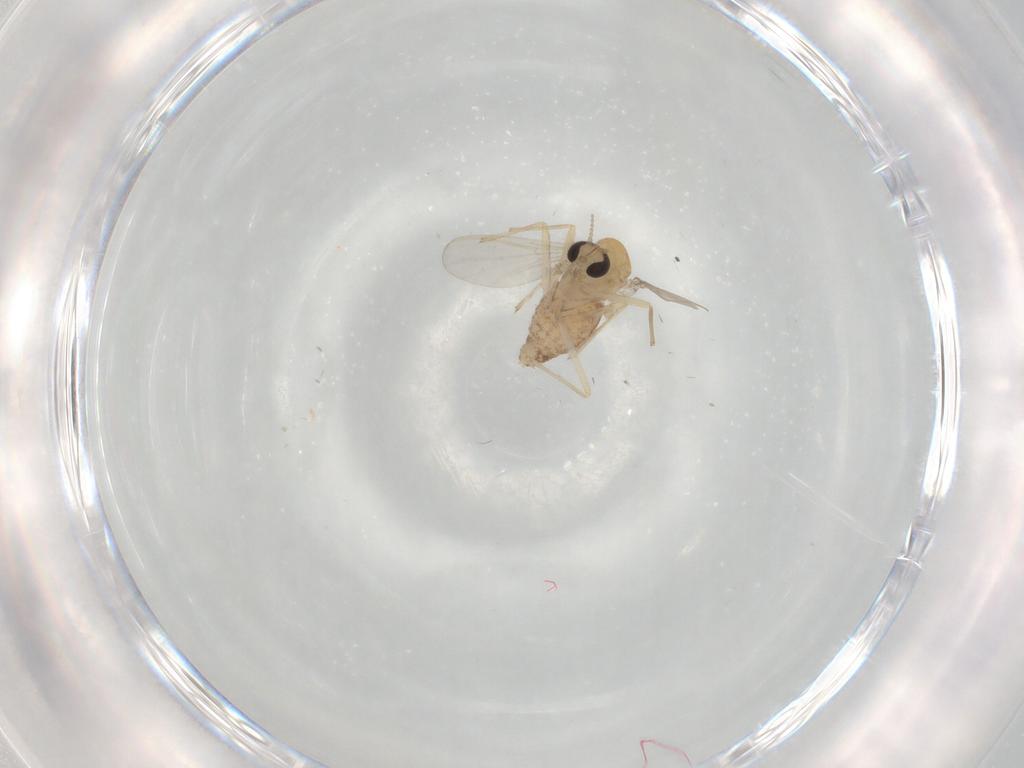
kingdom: Animalia
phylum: Arthropoda
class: Insecta
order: Diptera
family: Chironomidae
